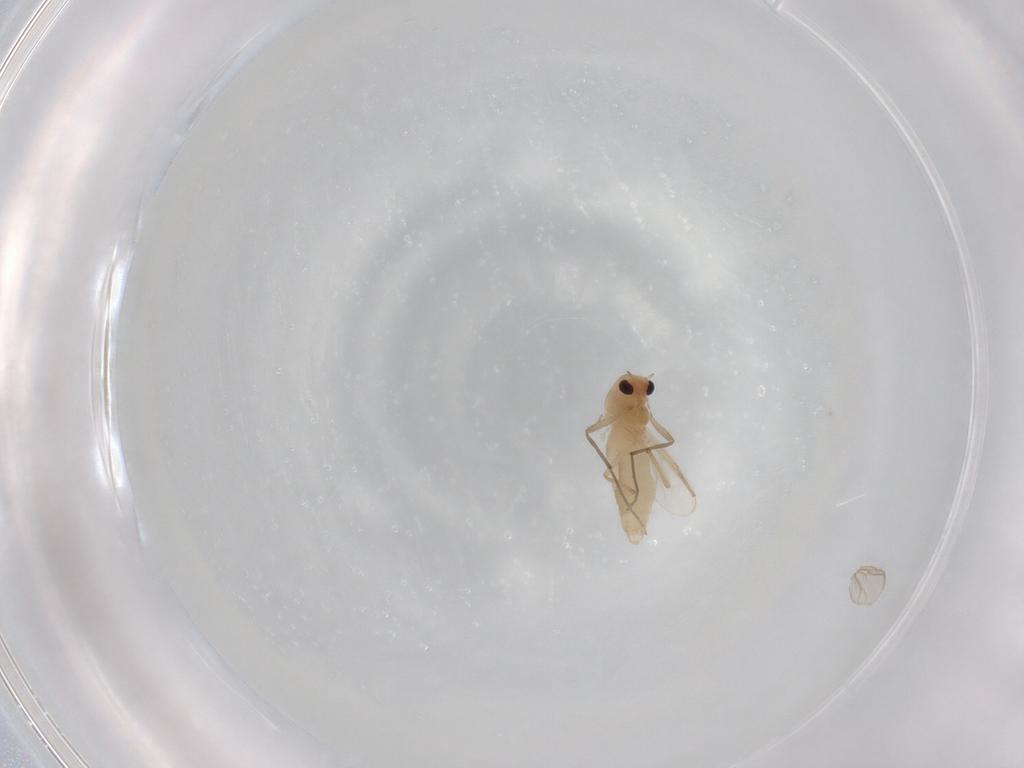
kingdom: Animalia
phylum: Arthropoda
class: Insecta
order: Diptera
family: Chironomidae
